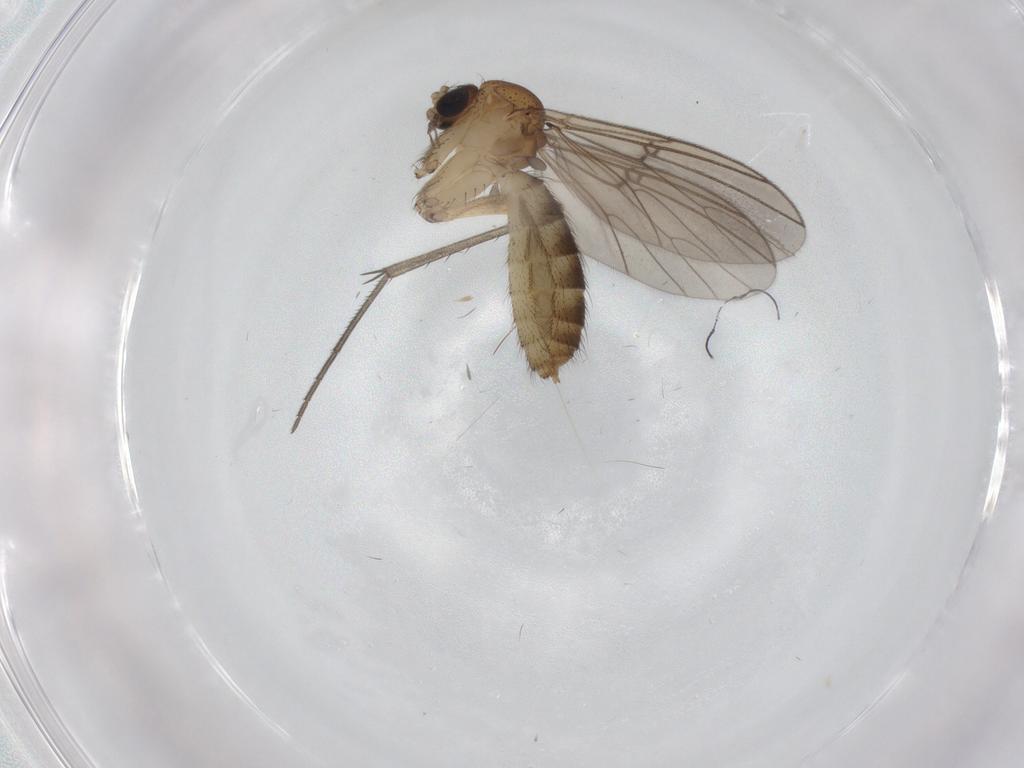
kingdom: Animalia
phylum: Arthropoda
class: Insecta
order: Diptera
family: Mycetophilidae
